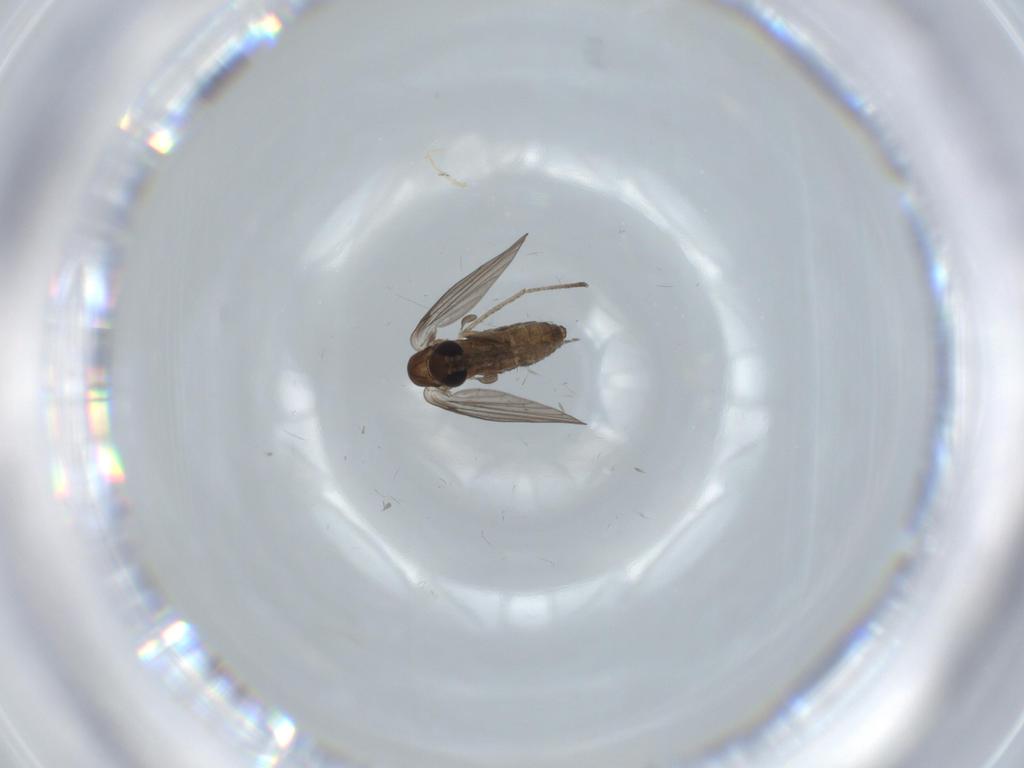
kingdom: Animalia
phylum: Arthropoda
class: Insecta
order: Diptera
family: Psychodidae
